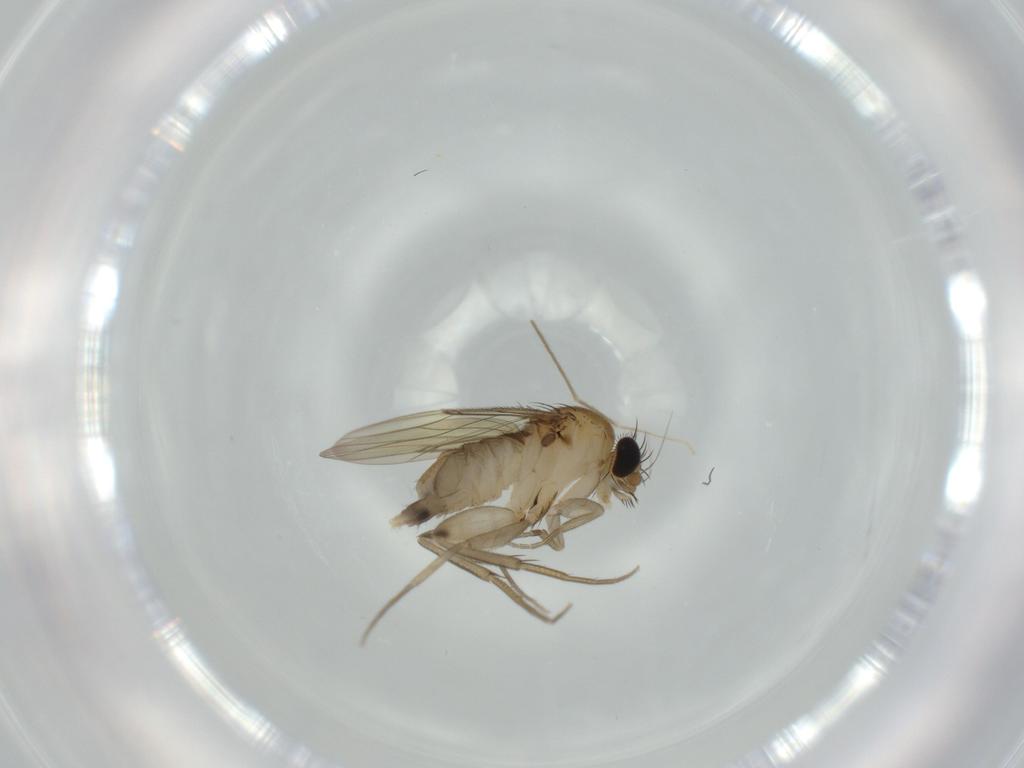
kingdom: Animalia
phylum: Arthropoda
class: Insecta
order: Diptera
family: Phoridae
